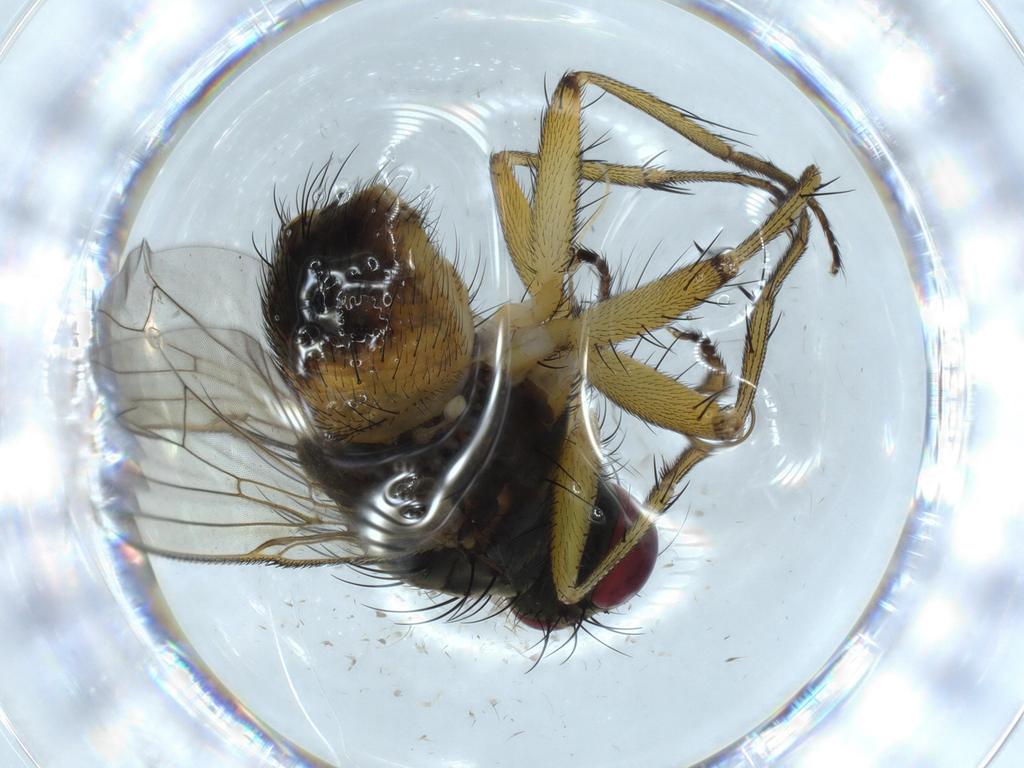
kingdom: Animalia
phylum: Arthropoda
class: Insecta
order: Diptera
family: Muscidae
